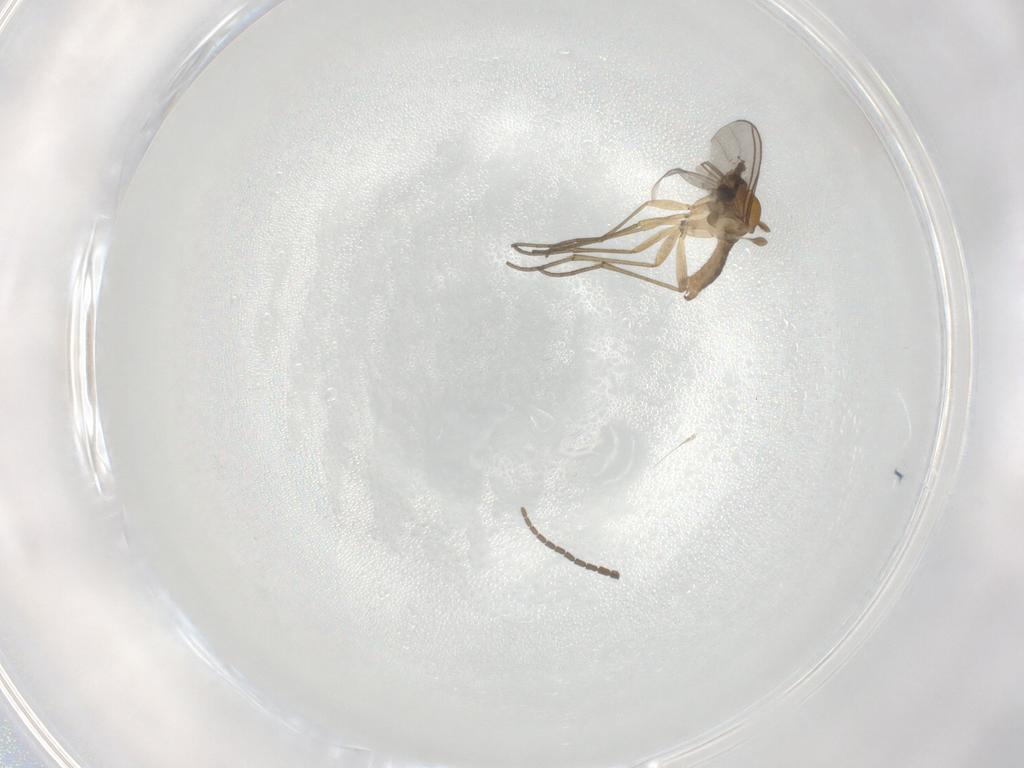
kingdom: Animalia
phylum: Arthropoda
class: Insecta
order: Diptera
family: Sciaridae
